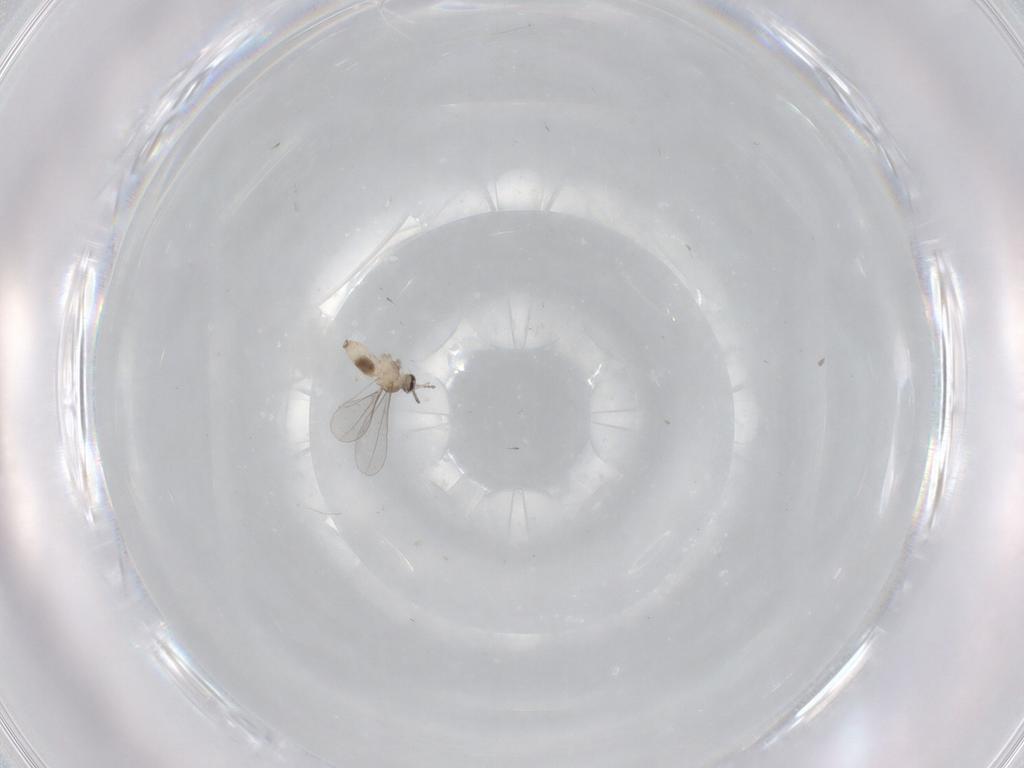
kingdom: Animalia
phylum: Arthropoda
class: Insecta
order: Diptera
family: Cecidomyiidae
